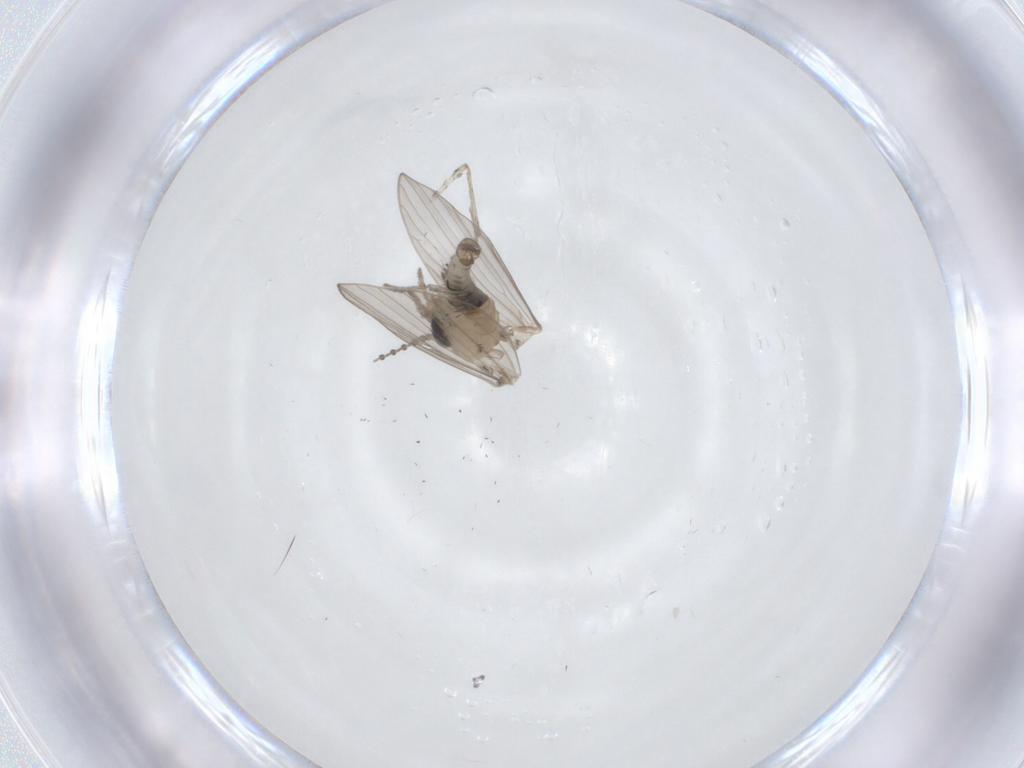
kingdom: Animalia
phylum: Arthropoda
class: Insecta
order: Diptera
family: Psychodidae
